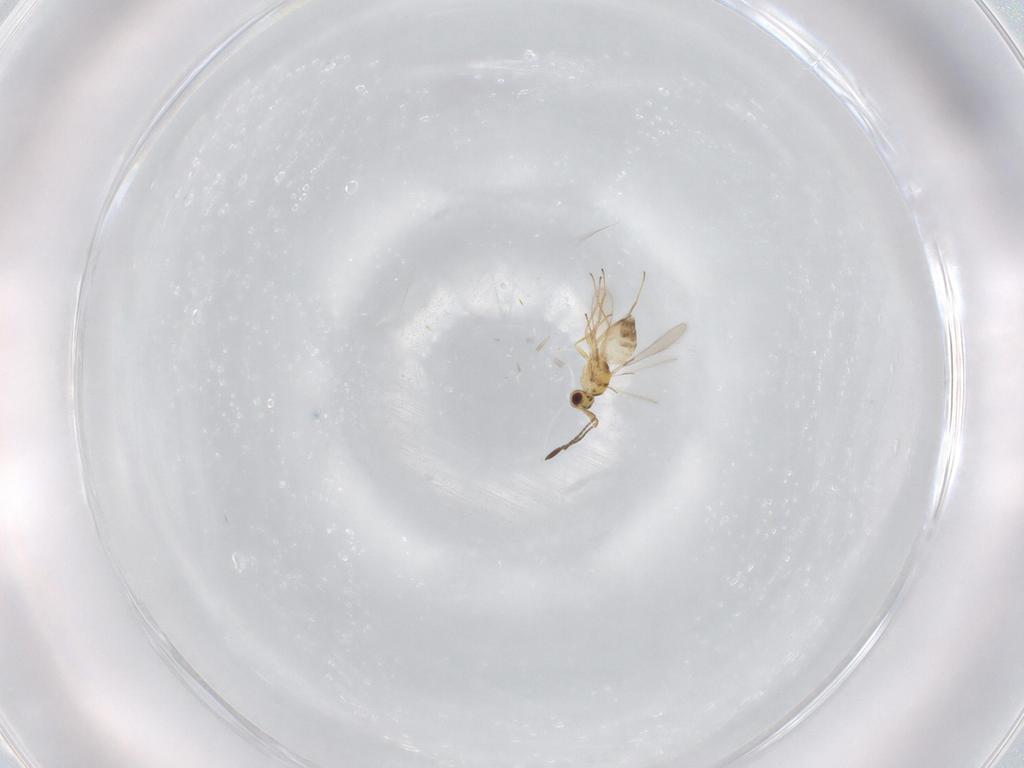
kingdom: Animalia
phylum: Arthropoda
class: Insecta
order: Hymenoptera
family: Mymaridae
